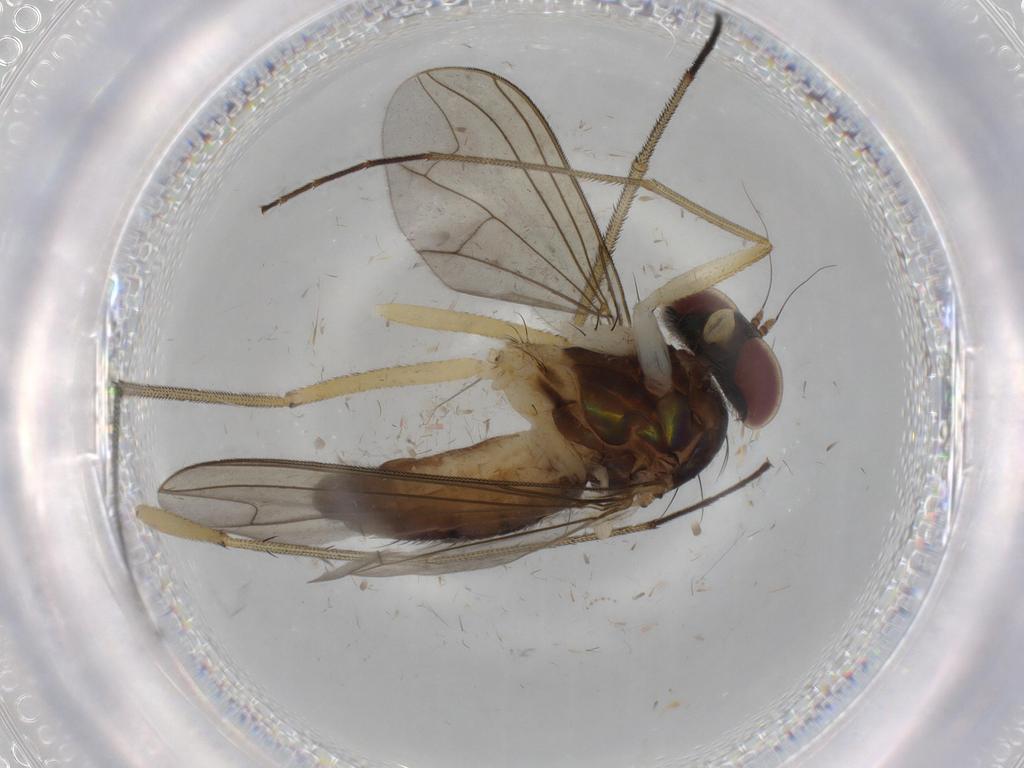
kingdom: Animalia
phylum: Arthropoda
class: Insecta
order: Diptera
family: Dolichopodidae
